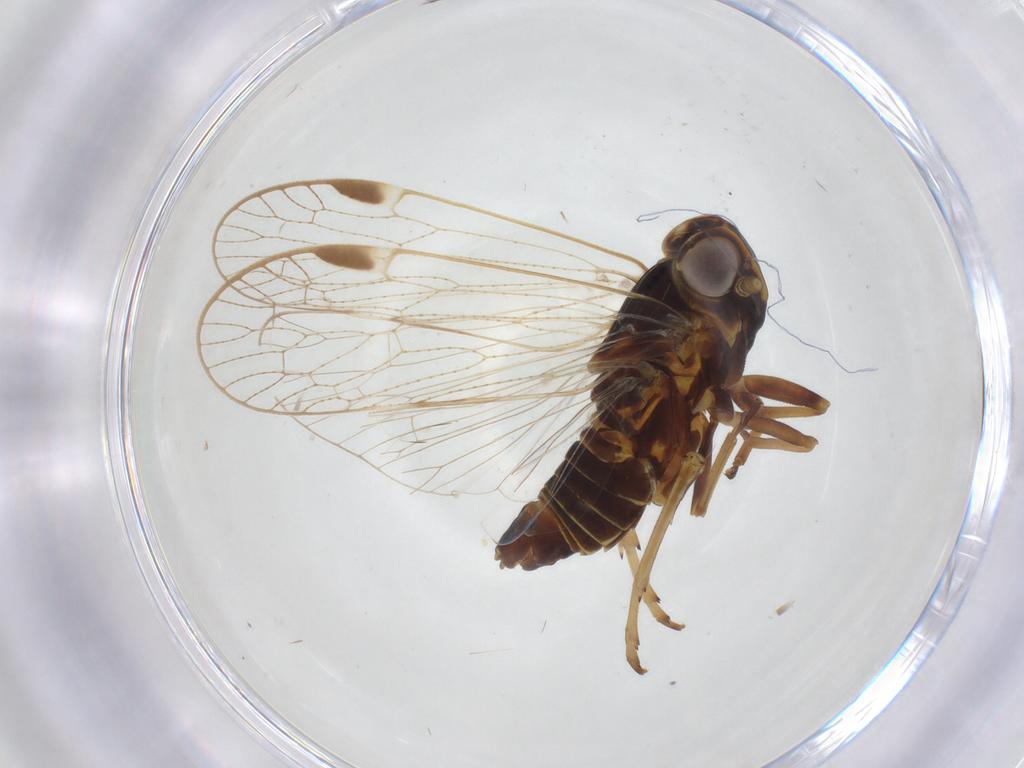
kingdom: Animalia
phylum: Arthropoda
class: Insecta
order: Hemiptera
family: Cixiidae
